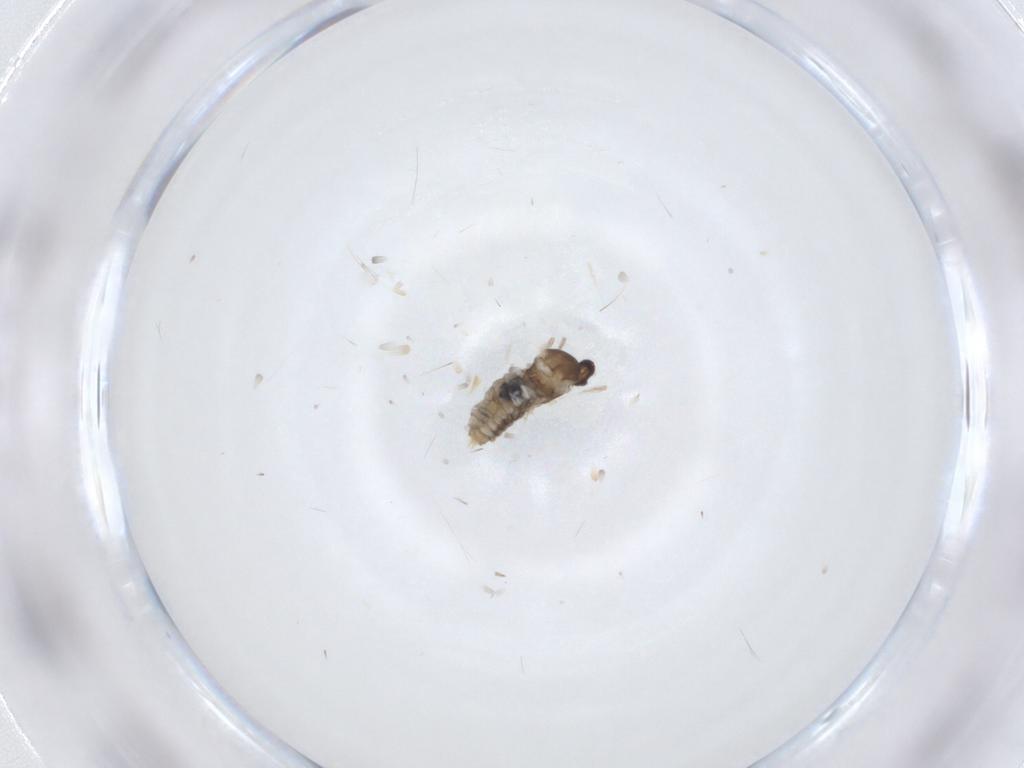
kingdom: Animalia
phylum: Arthropoda
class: Insecta
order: Diptera
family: Cecidomyiidae
